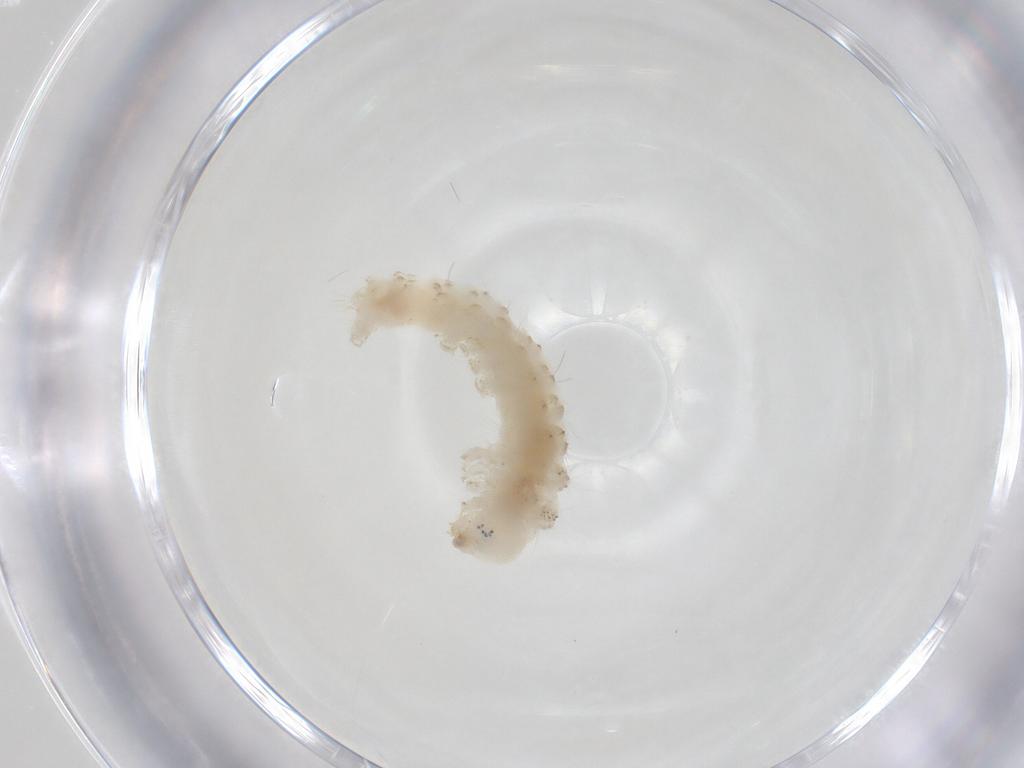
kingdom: Animalia
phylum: Arthropoda
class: Insecta
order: Lepidoptera
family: Erebidae
